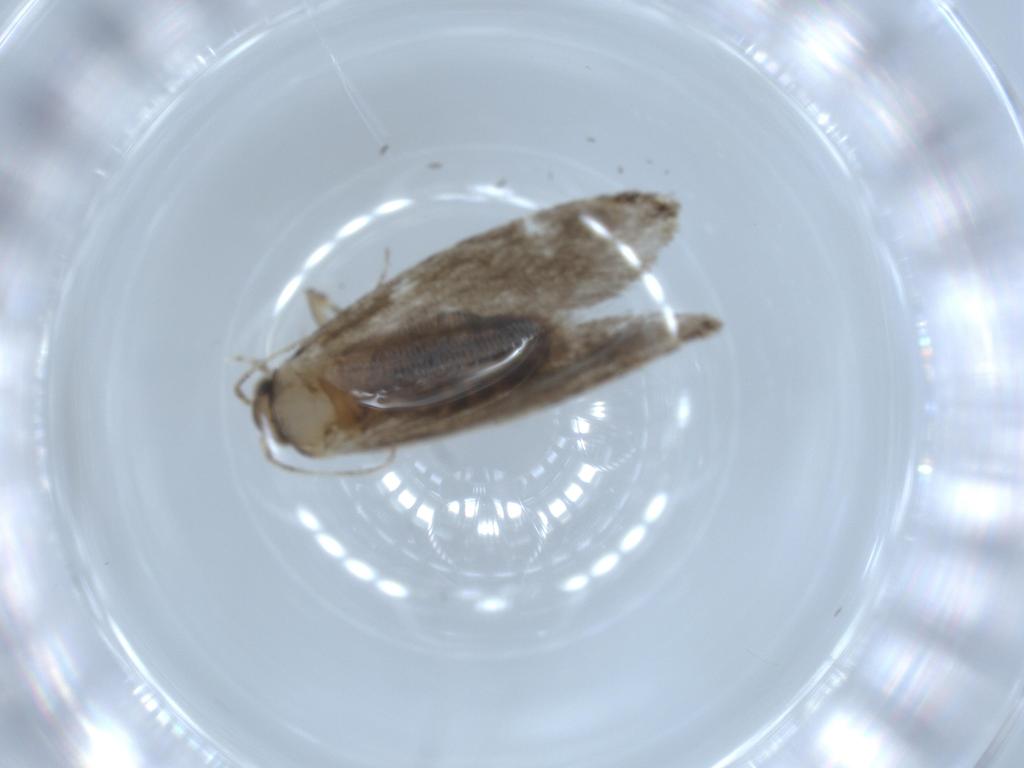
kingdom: Animalia
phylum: Arthropoda
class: Insecta
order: Lepidoptera
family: Tineidae
